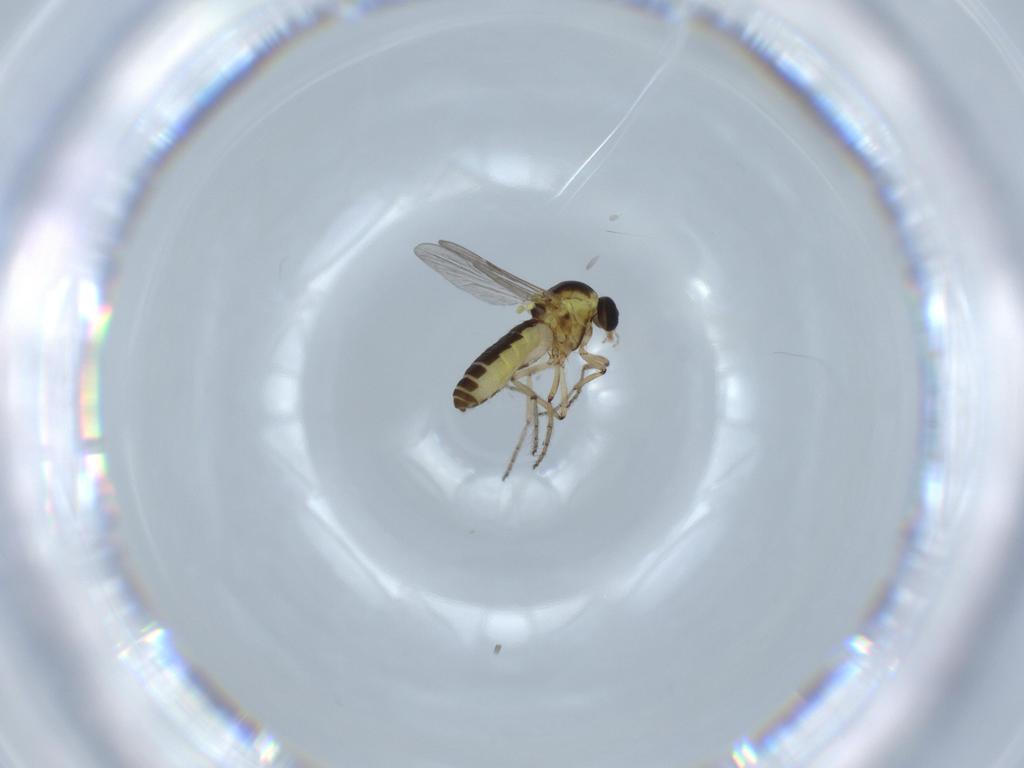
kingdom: Animalia
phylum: Arthropoda
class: Insecta
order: Diptera
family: Ceratopogonidae
